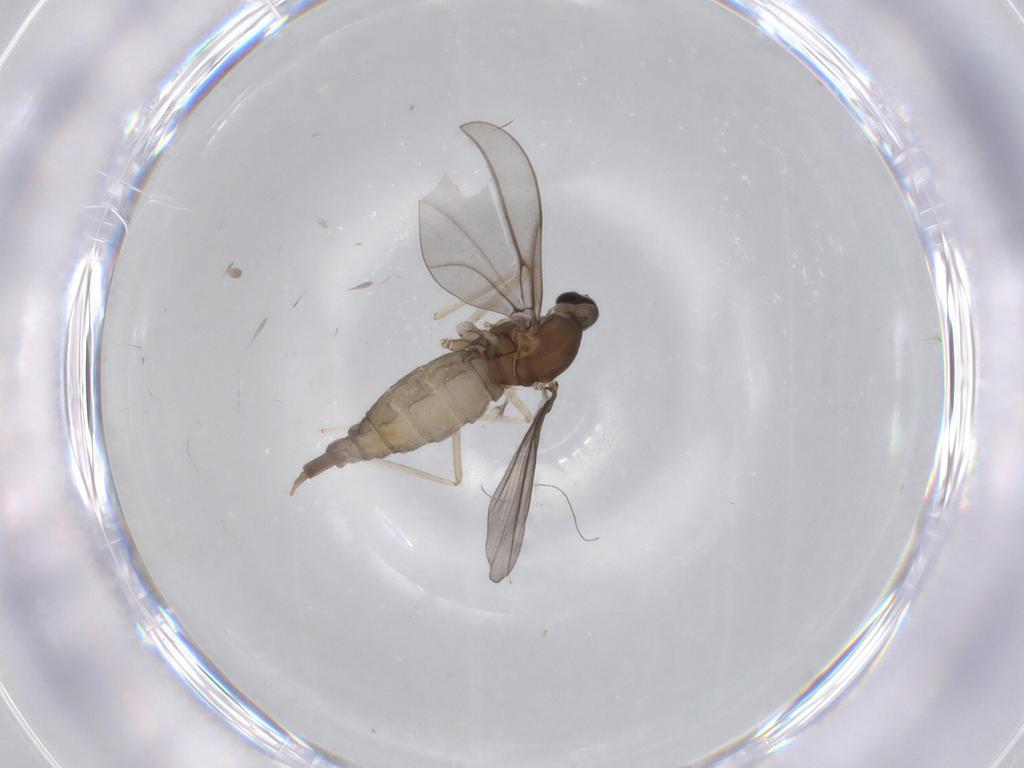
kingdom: Animalia
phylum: Arthropoda
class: Insecta
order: Diptera
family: Cecidomyiidae
